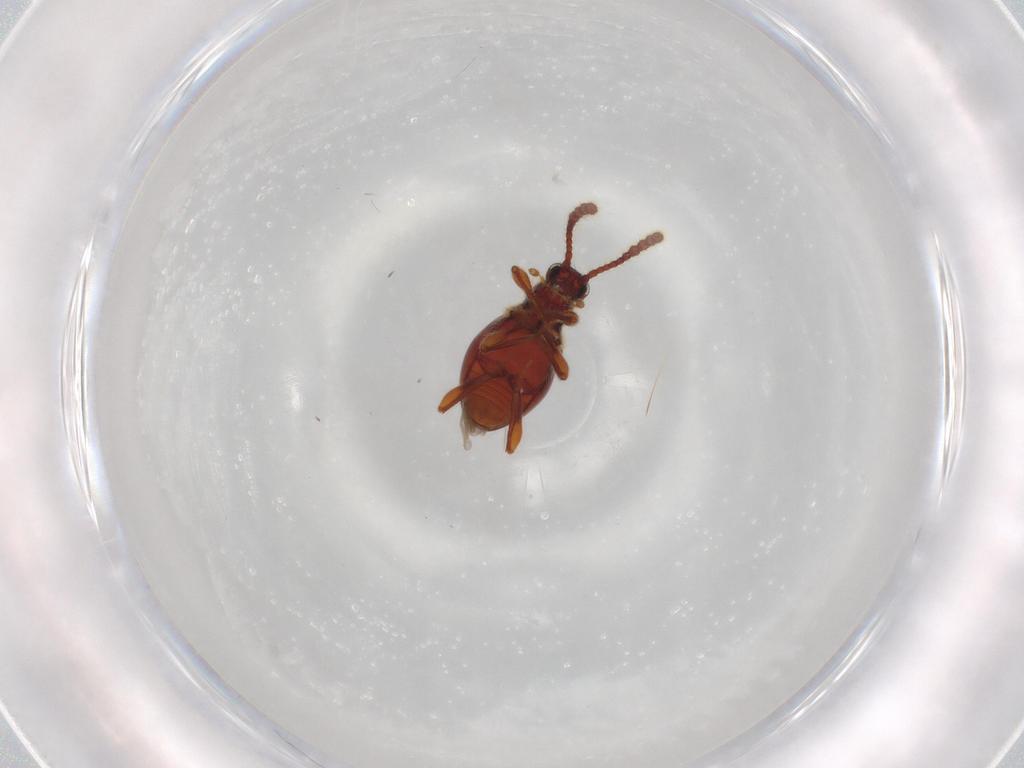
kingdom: Animalia
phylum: Arthropoda
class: Insecta
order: Coleoptera
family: Staphylinidae
